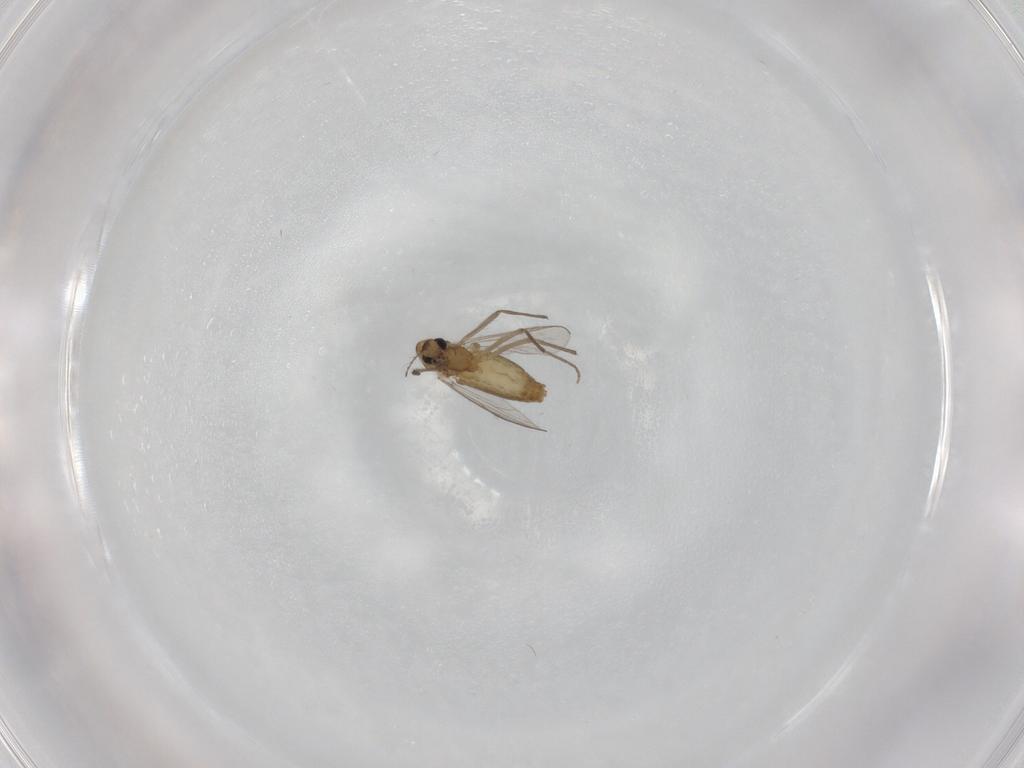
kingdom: Animalia
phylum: Arthropoda
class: Insecta
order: Diptera
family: Chironomidae
